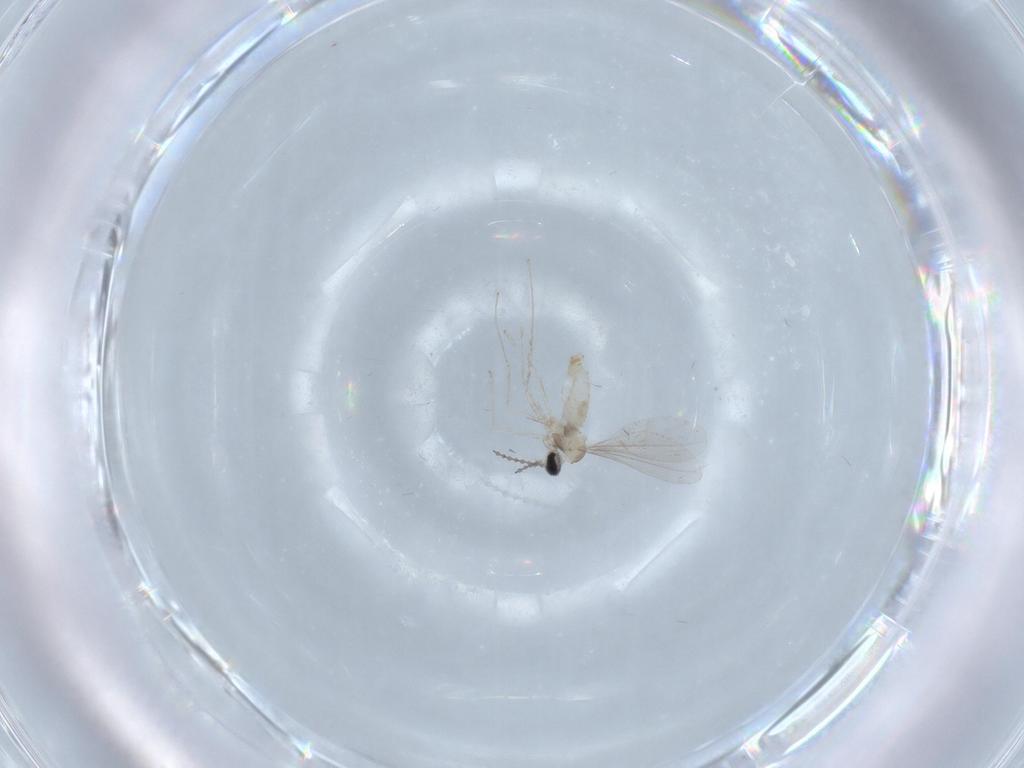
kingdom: Animalia
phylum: Arthropoda
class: Insecta
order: Diptera
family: Cecidomyiidae
